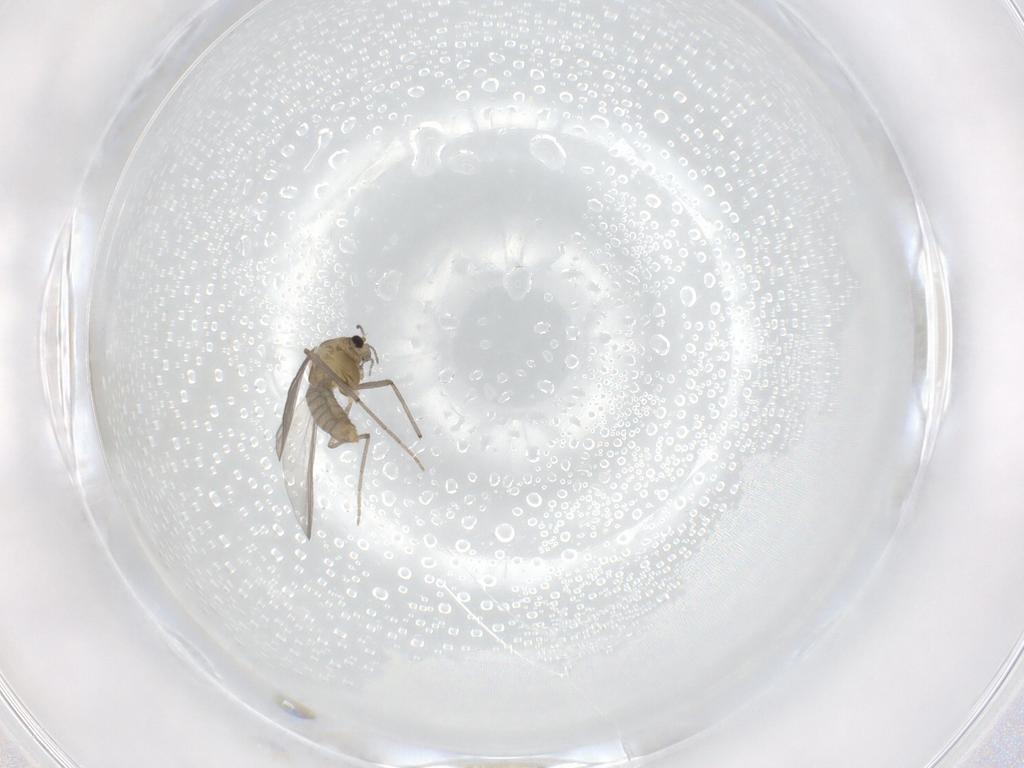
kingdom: Animalia
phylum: Arthropoda
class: Insecta
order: Diptera
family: Chironomidae
